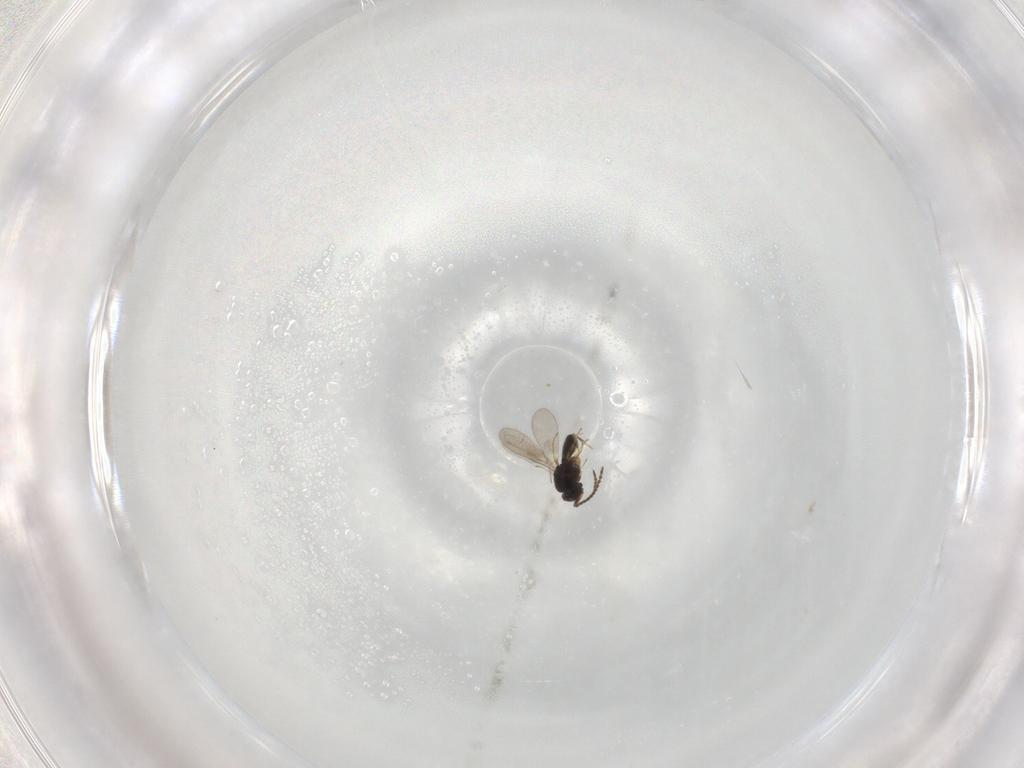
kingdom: Animalia
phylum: Arthropoda
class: Insecta
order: Hymenoptera
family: Scelionidae
